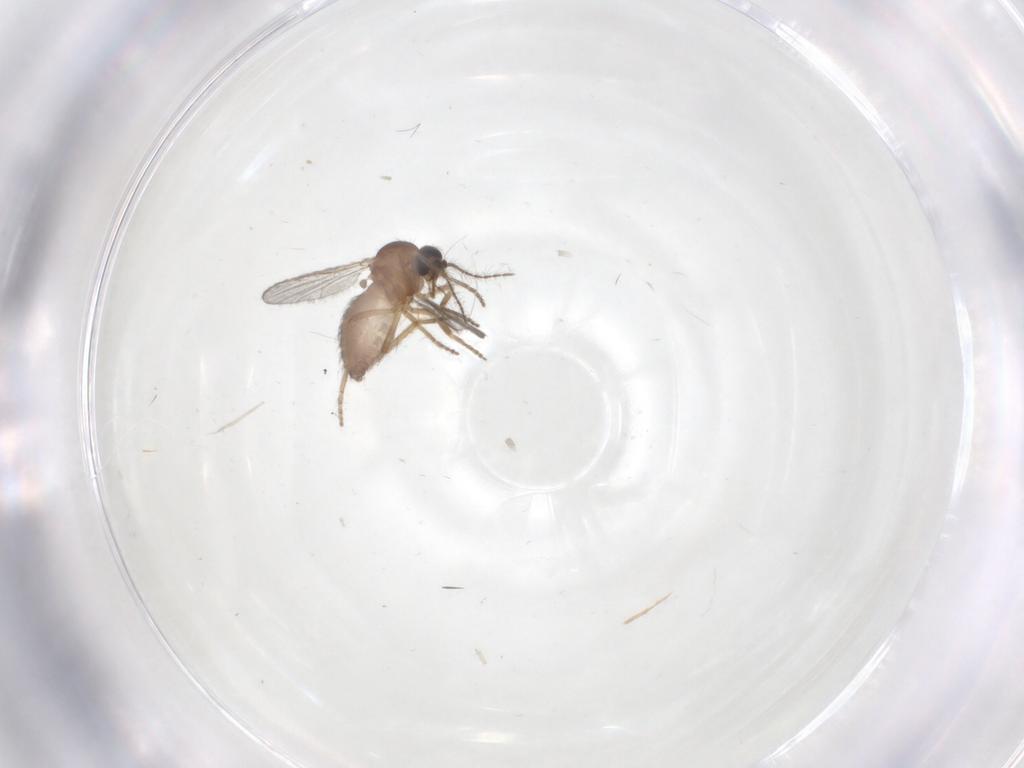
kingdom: Animalia
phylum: Arthropoda
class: Insecta
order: Diptera
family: Ceratopogonidae
